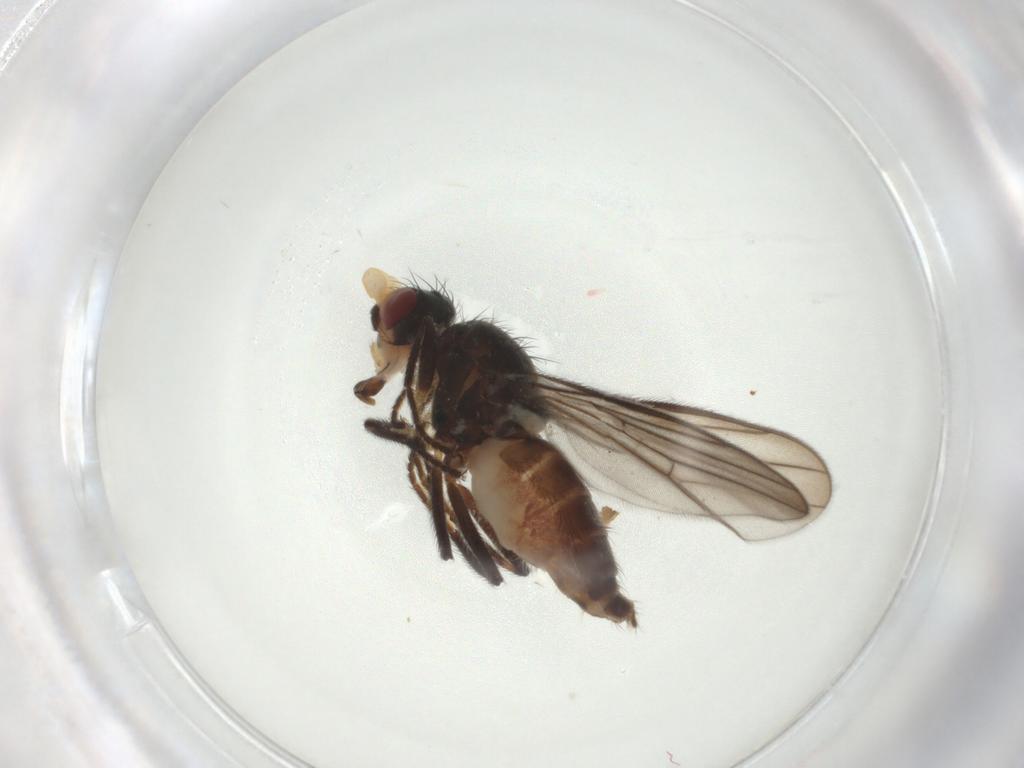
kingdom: Animalia
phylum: Arthropoda
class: Insecta
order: Diptera
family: Chloropidae
